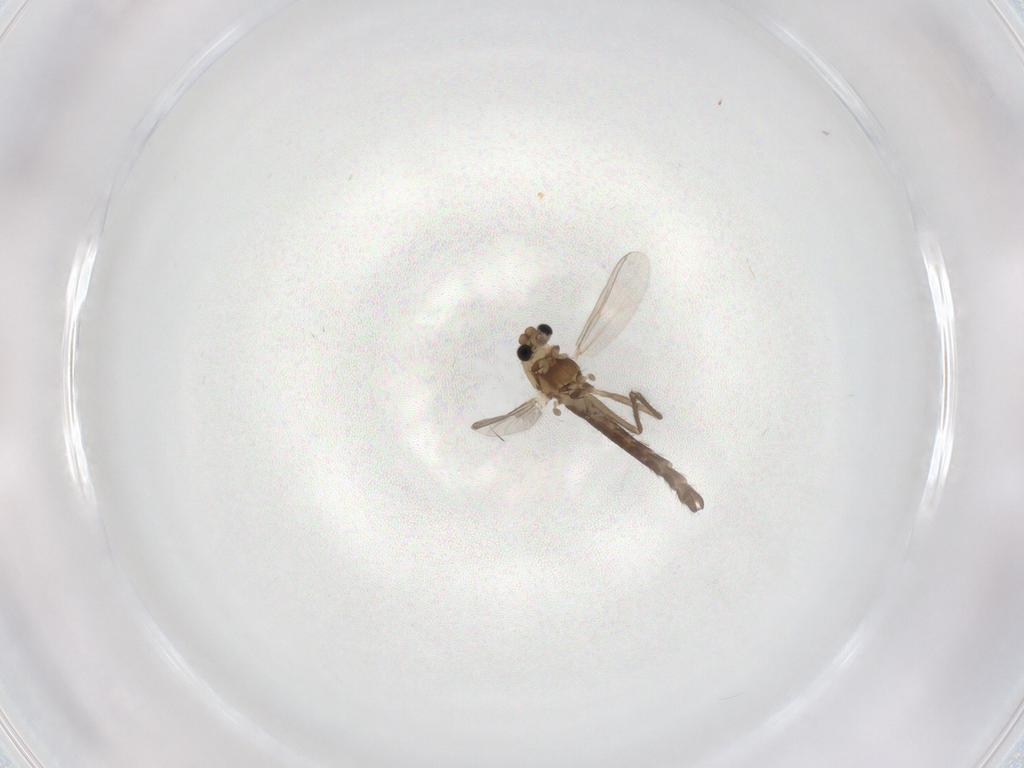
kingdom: Animalia
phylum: Arthropoda
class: Insecta
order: Diptera
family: Chironomidae
